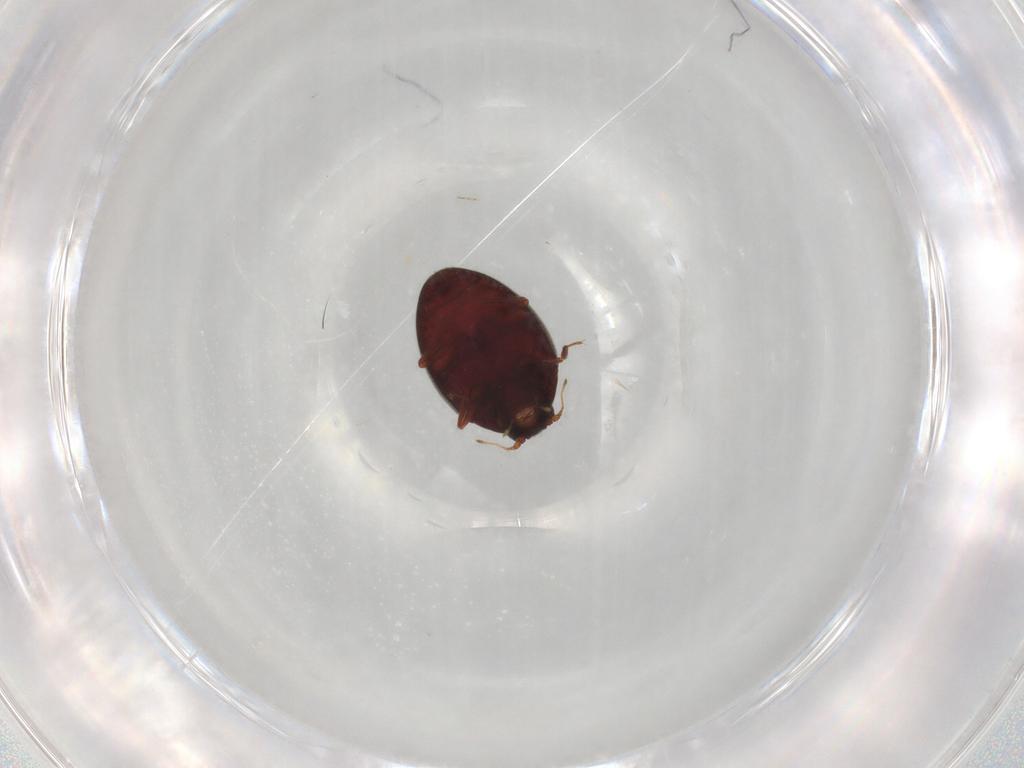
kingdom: Animalia
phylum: Arthropoda
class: Insecta
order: Coleoptera
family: Limnichidae
